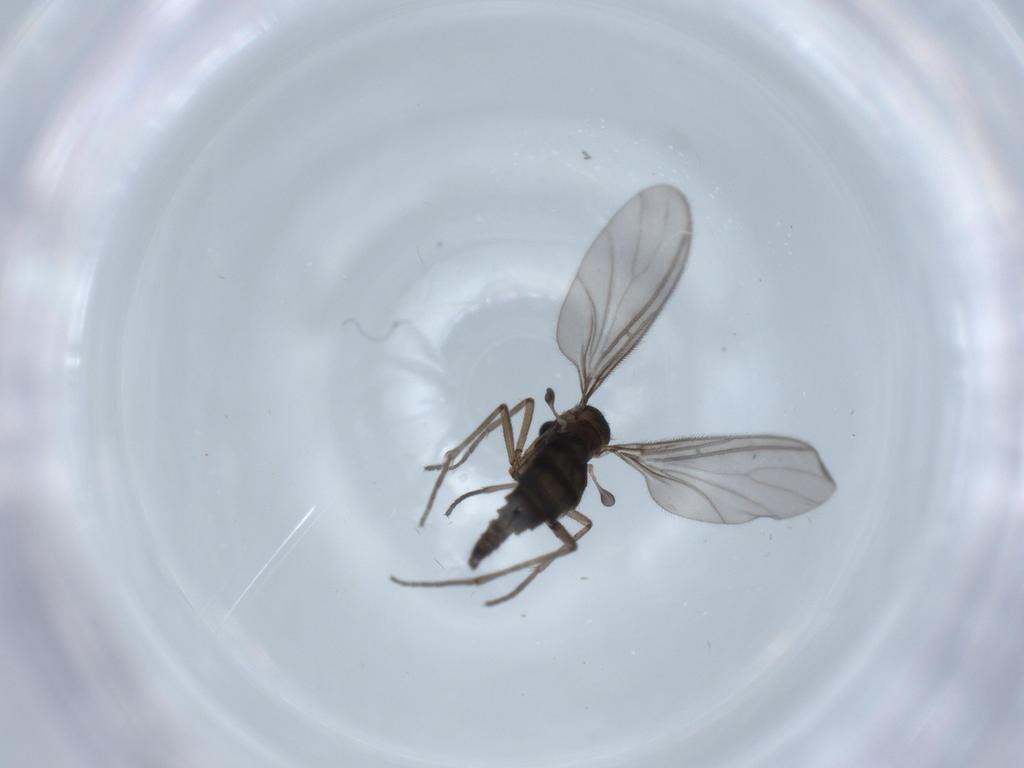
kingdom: Animalia
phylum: Arthropoda
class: Insecta
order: Diptera
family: Sciaridae
